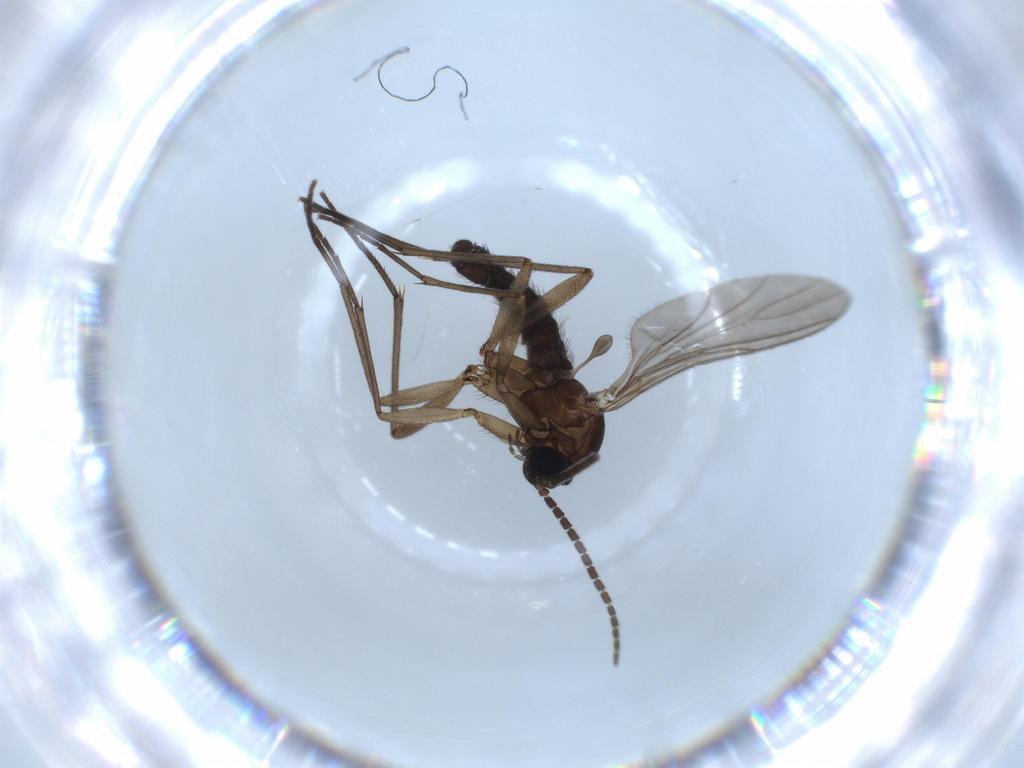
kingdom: Animalia
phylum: Arthropoda
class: Insecta
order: Diptera
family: Sciaridae
